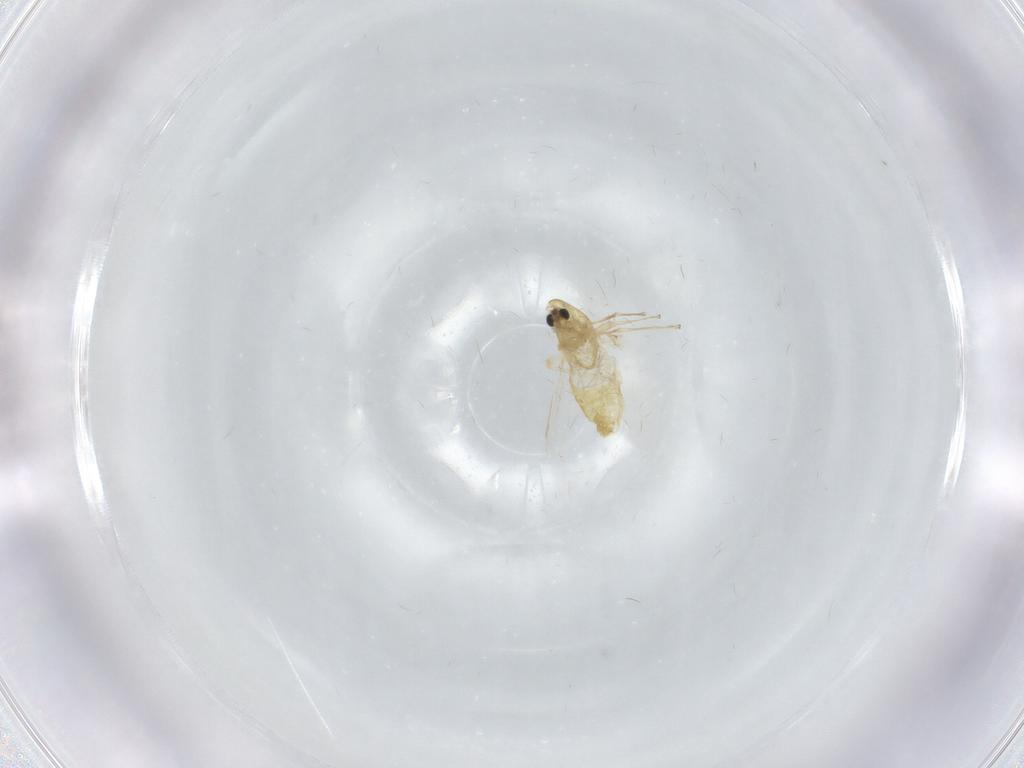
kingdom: Animalia
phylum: Arthropoda
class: Insecta
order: Diptera
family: Chironomidae
